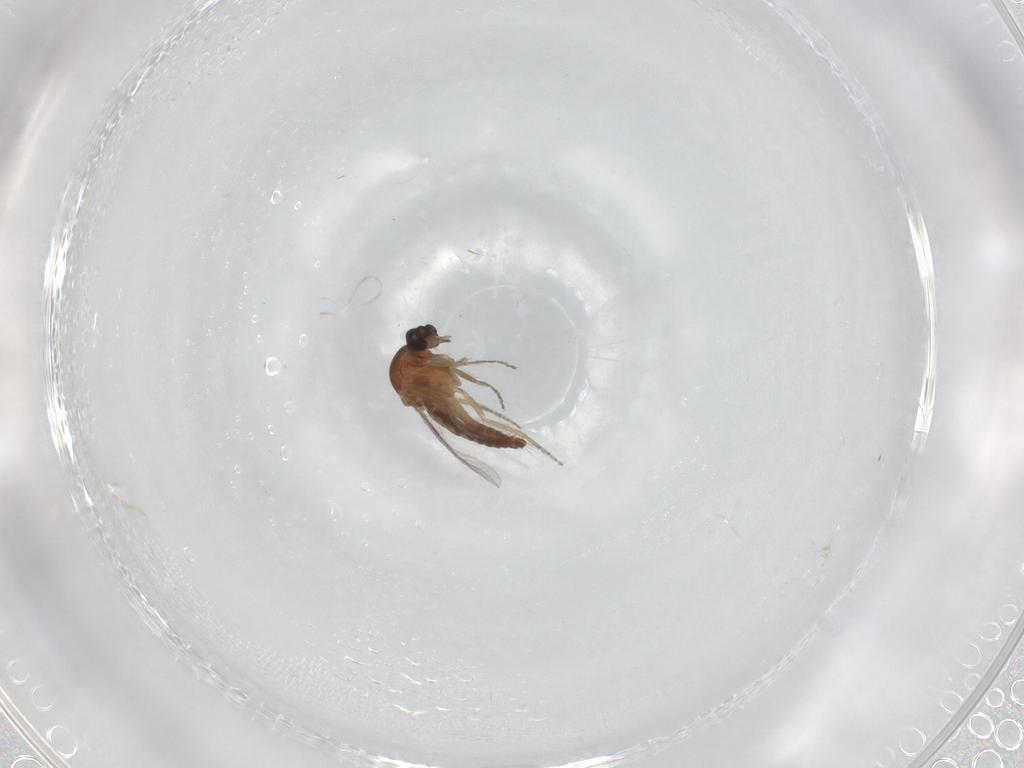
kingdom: Animalia
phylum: Arthropoda
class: Insecta
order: Diptera
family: Ceratopogonidae
